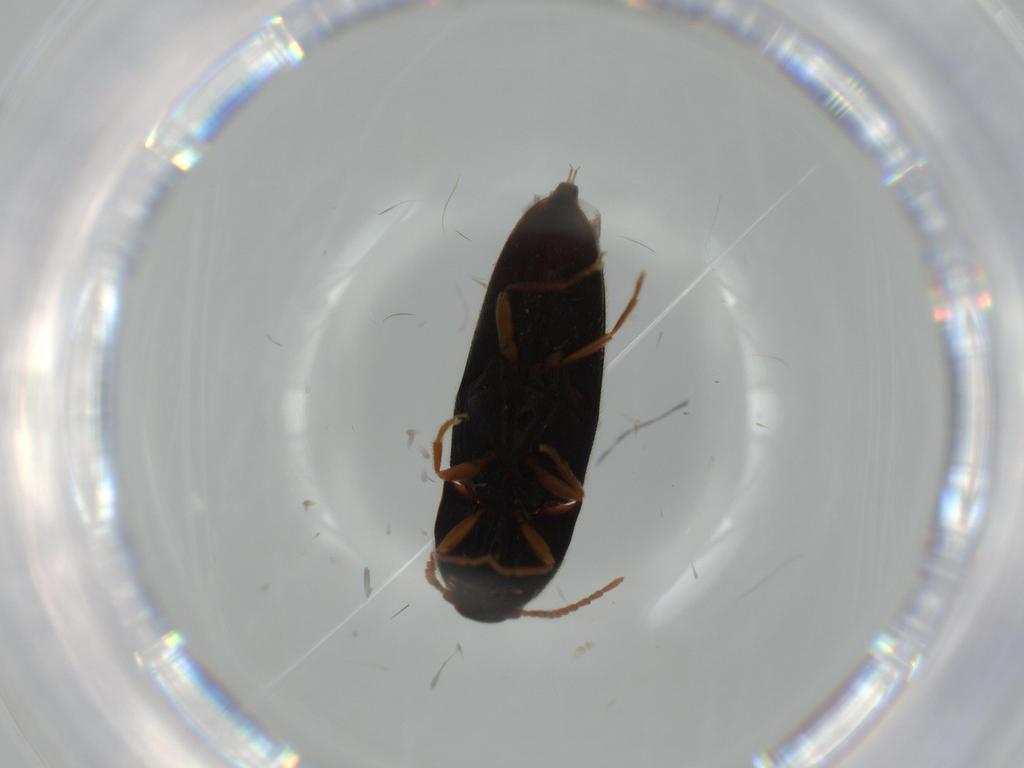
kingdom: Animalia
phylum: Arthropoda
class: Insecta
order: Coleoptera
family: Elateridae
